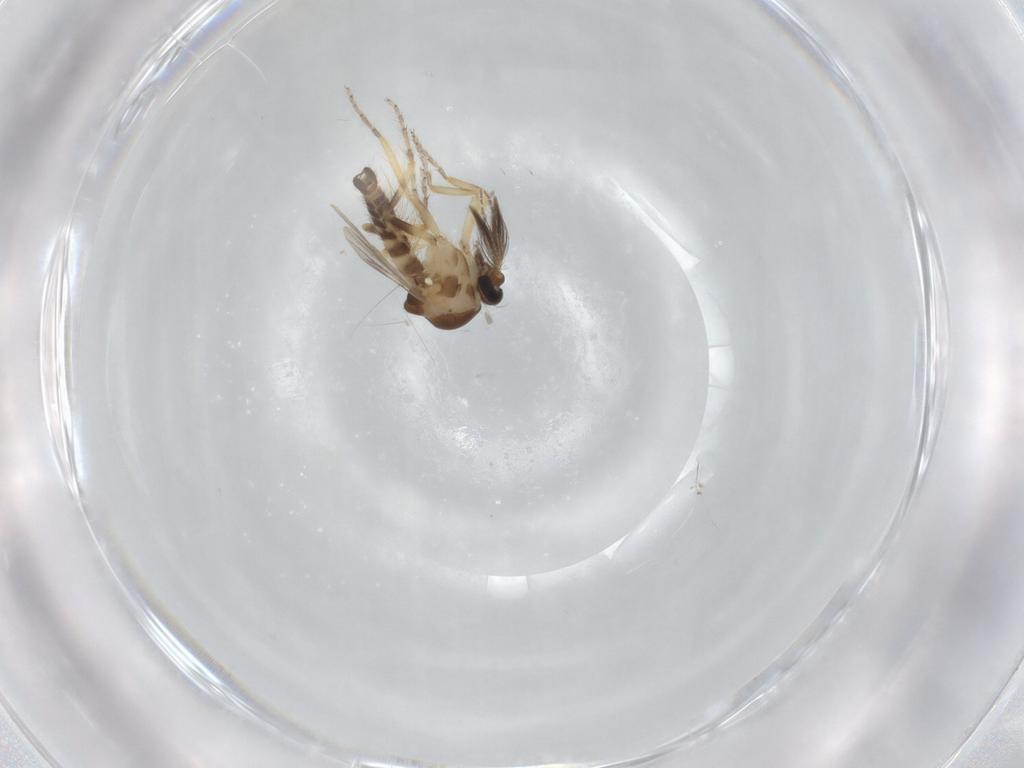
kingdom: Animalia
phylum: Arthropoda
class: Insecta
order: Diptera
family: Ceratopogonidae
